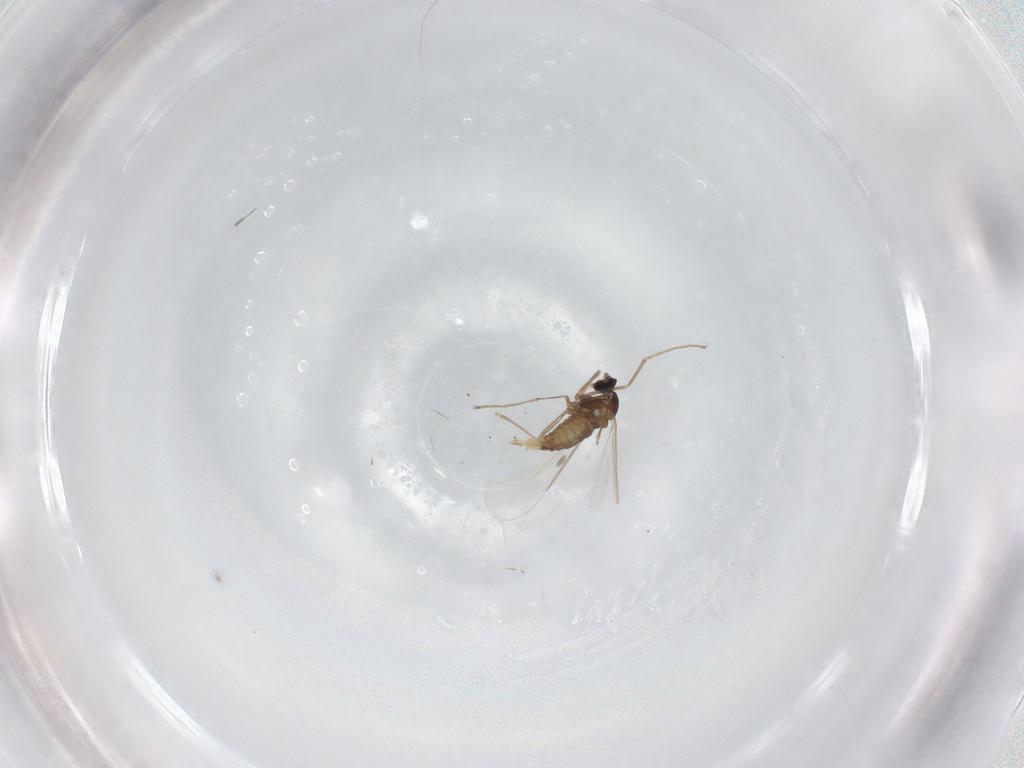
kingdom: Animalia
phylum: Arthropoda
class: Insecta
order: Diptera
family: Cecidomyiidae
